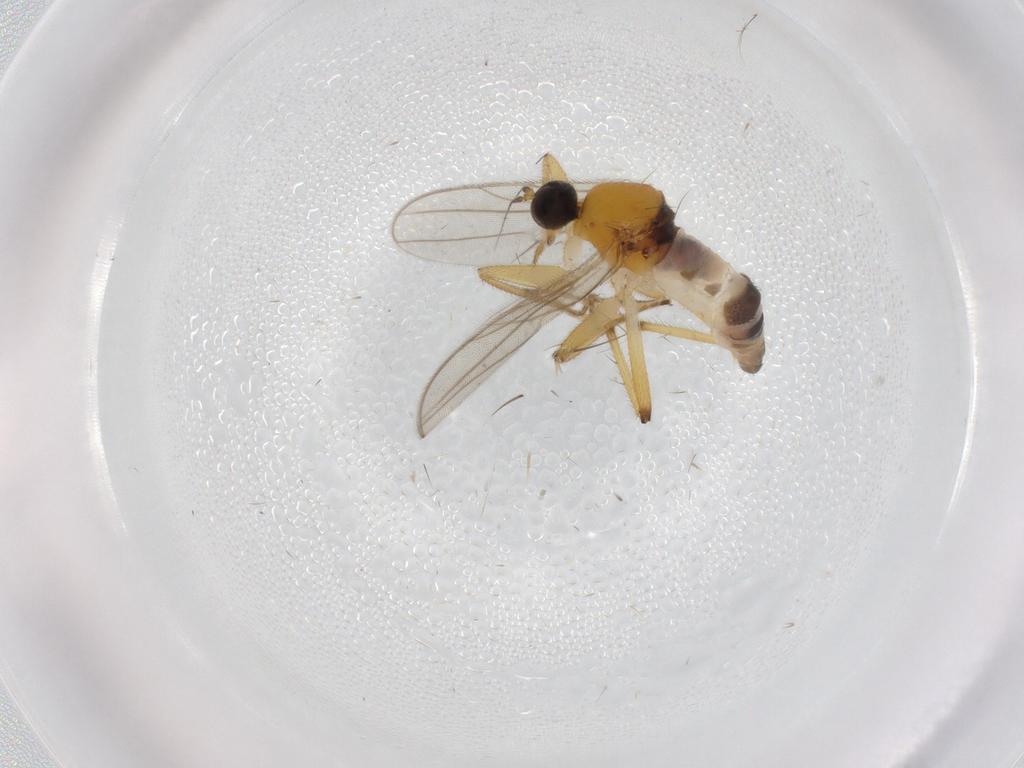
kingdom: Animalia
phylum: Arthropoda
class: Insecta
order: Diptera
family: Hybotidae
